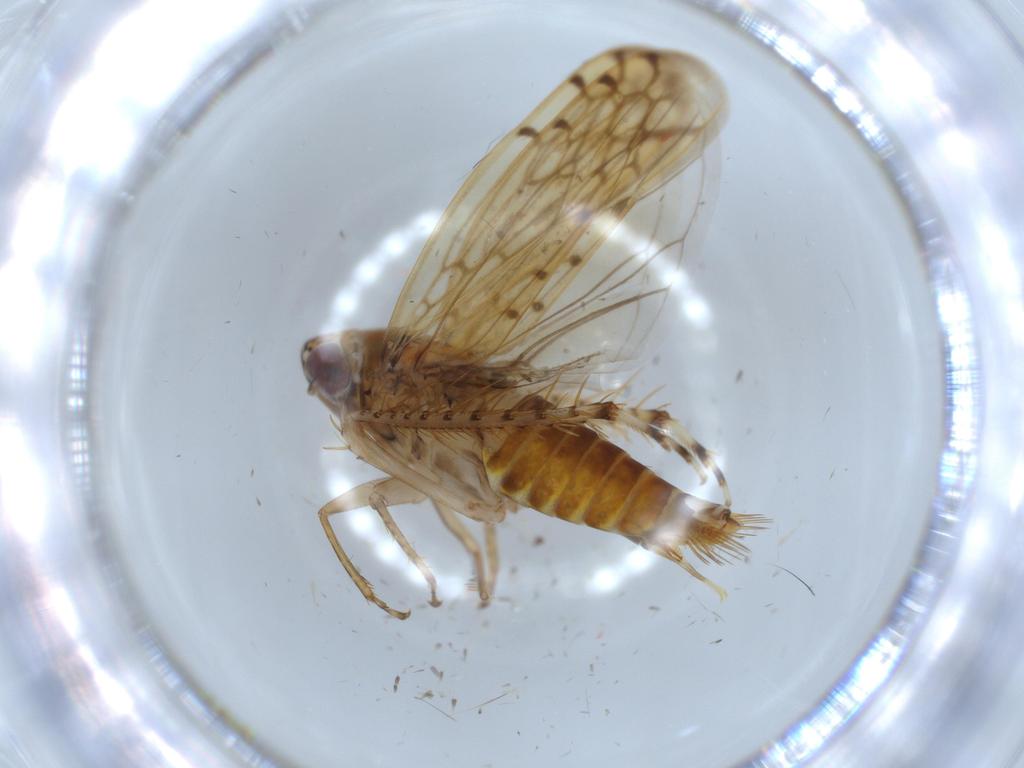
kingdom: Animalia
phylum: Arthropoda
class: Insecta
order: Hemiptera
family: Cicadellidae
